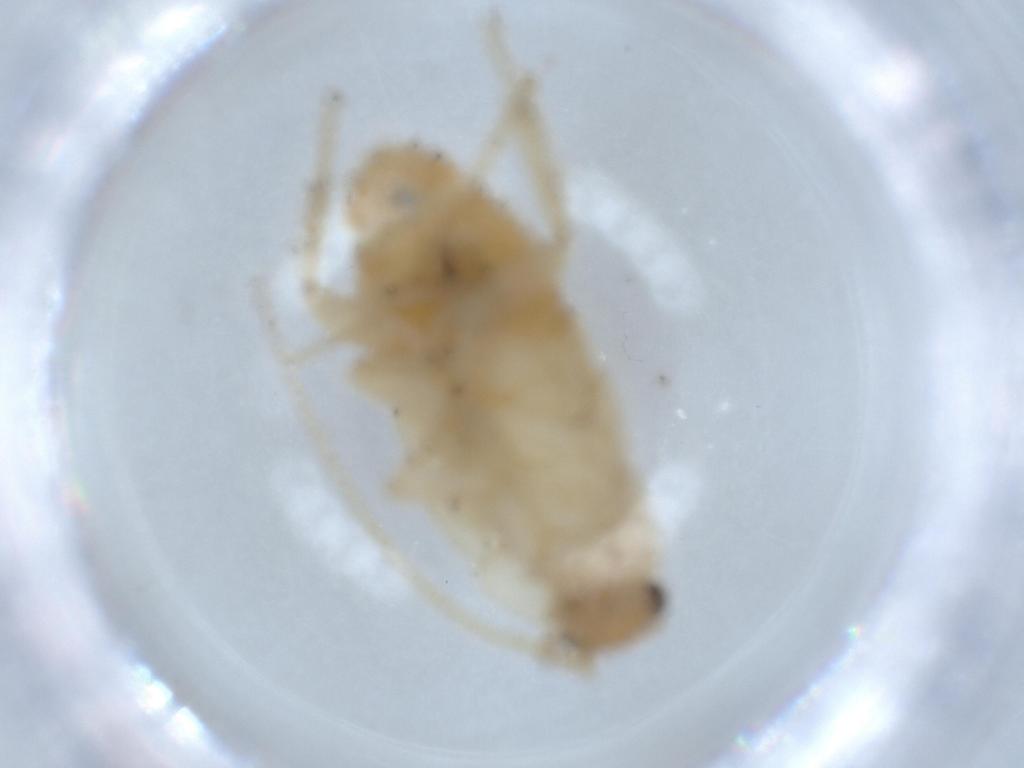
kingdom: Animalia
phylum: Arthropoda
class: Insecta
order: Blattodea
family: Ectobiidae
